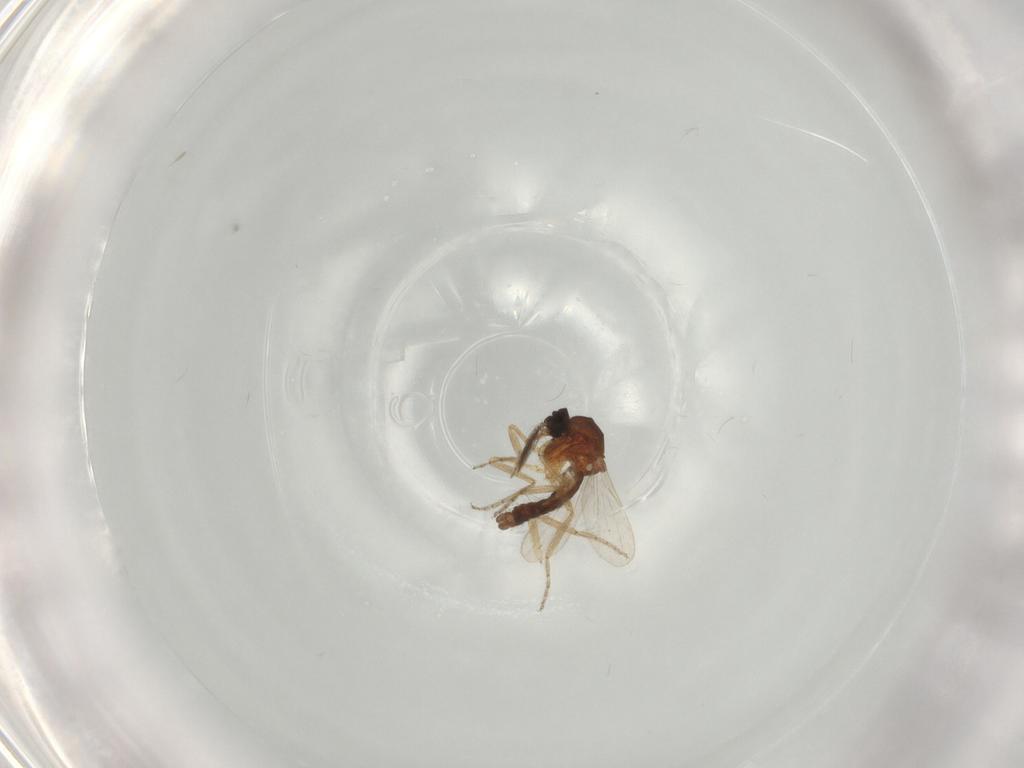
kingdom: Animalia
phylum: Arthropoda
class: Insecta
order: Diptera
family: Ceratopogonidae
